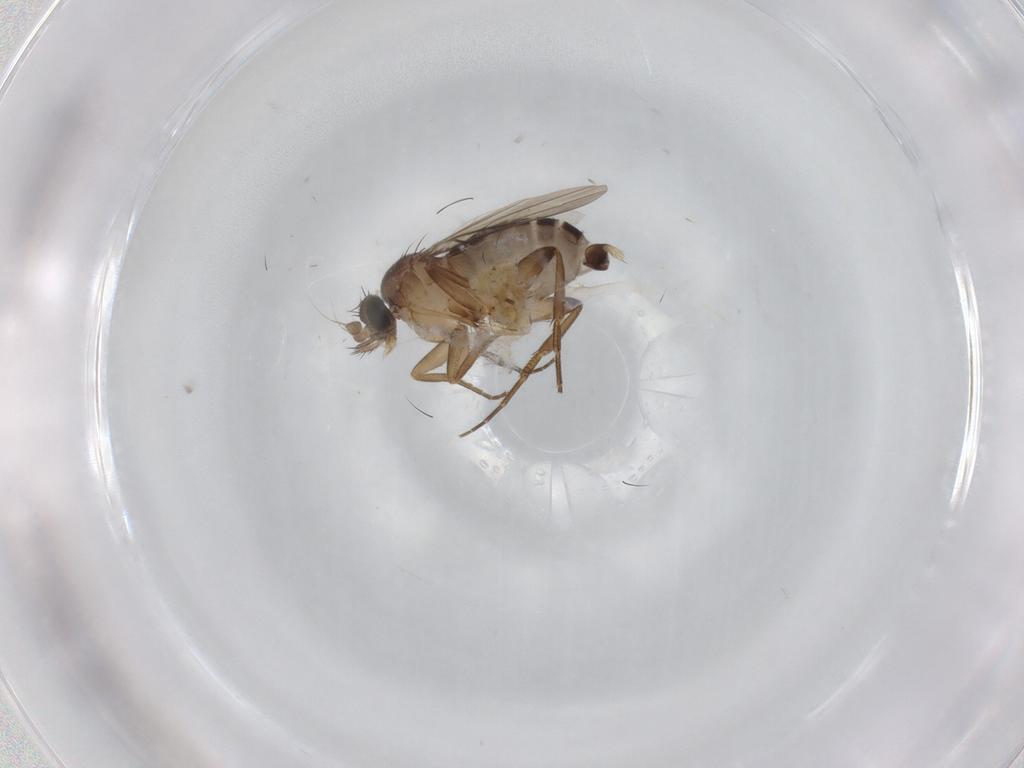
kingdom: Animalia
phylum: Arthropoda
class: Insecta
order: Diptera
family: Phoridae
